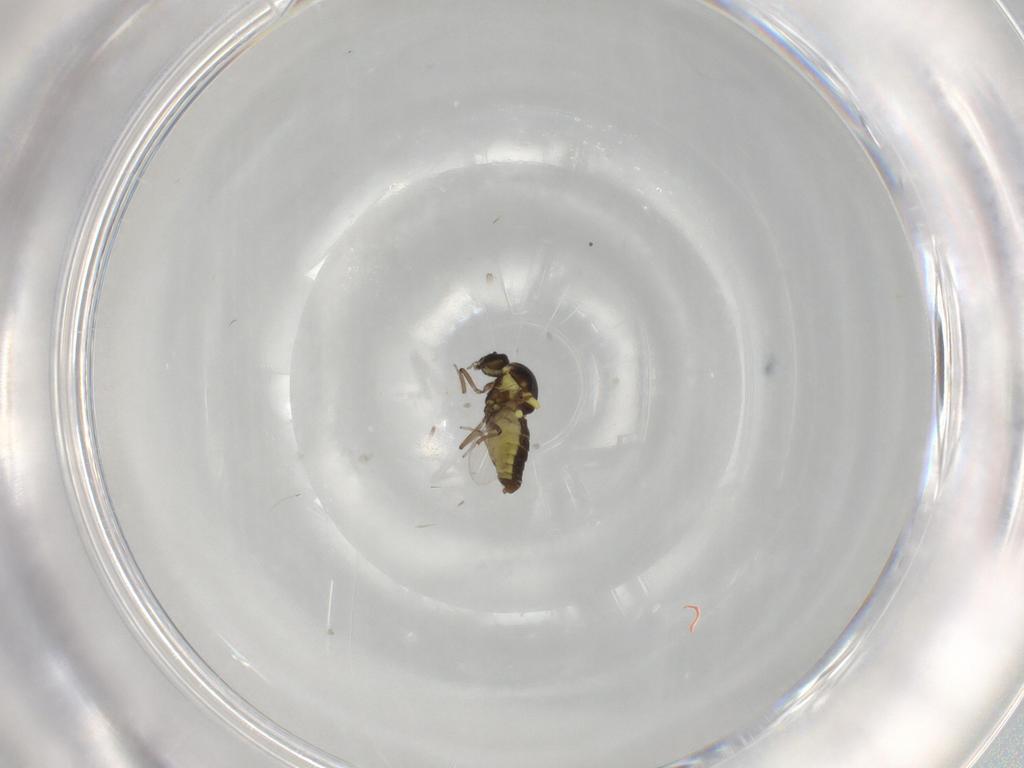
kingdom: Animalia
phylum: Arthropoda
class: Insecta
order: Diptera
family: Ceratopogonidae
